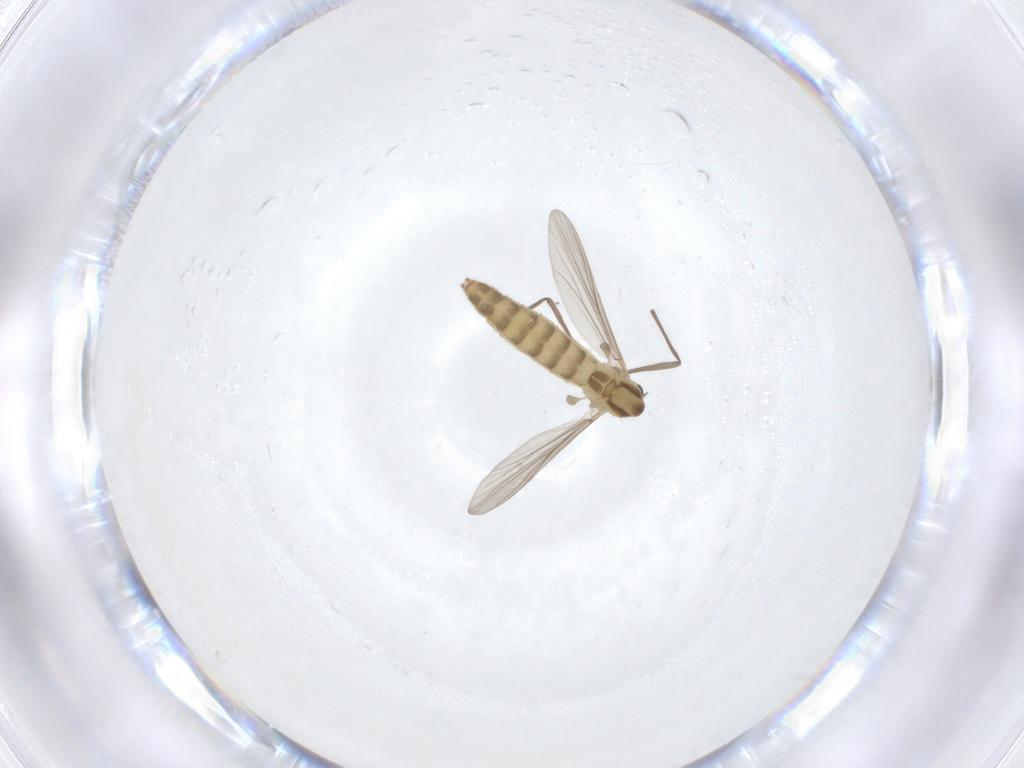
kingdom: Animalia
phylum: Arthropoda
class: Insecta
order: Diptera
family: Chironomidae
